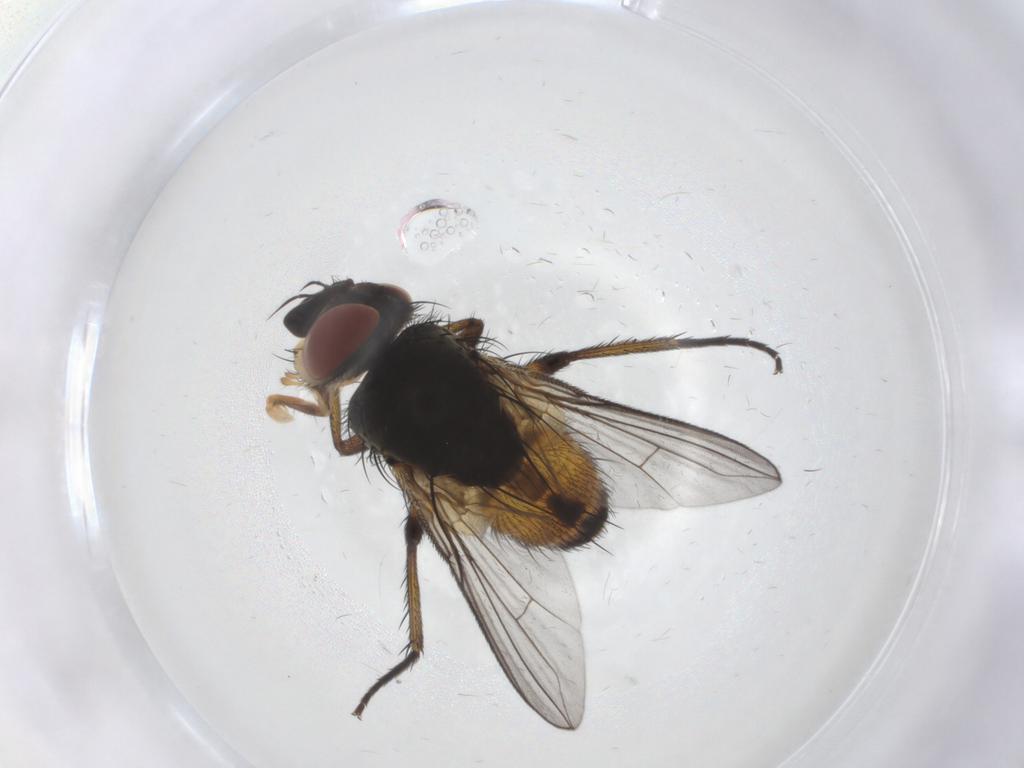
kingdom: Animalia
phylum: Arthropoda
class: Insecta
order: Diptera
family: Tachinidae
